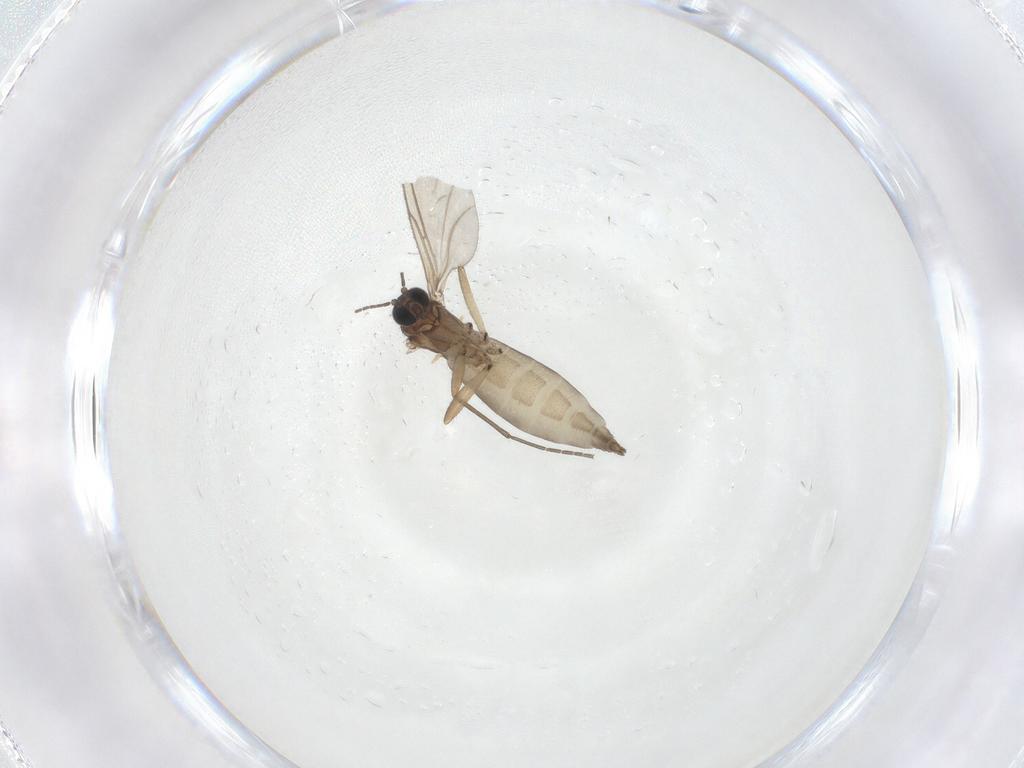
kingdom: Animalia
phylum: Arthropoda
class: Insecta
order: Diptera
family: Sciaridae
